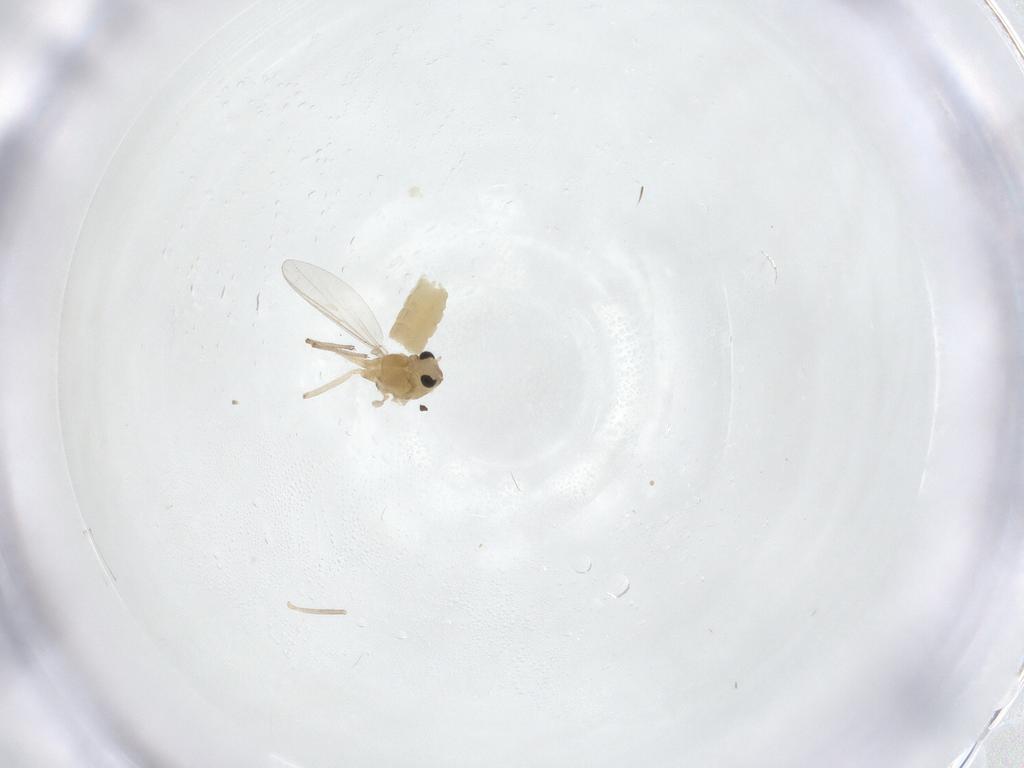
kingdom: Animalia
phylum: Arthropoda
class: Insecta
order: Diptera
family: Chironomidae
